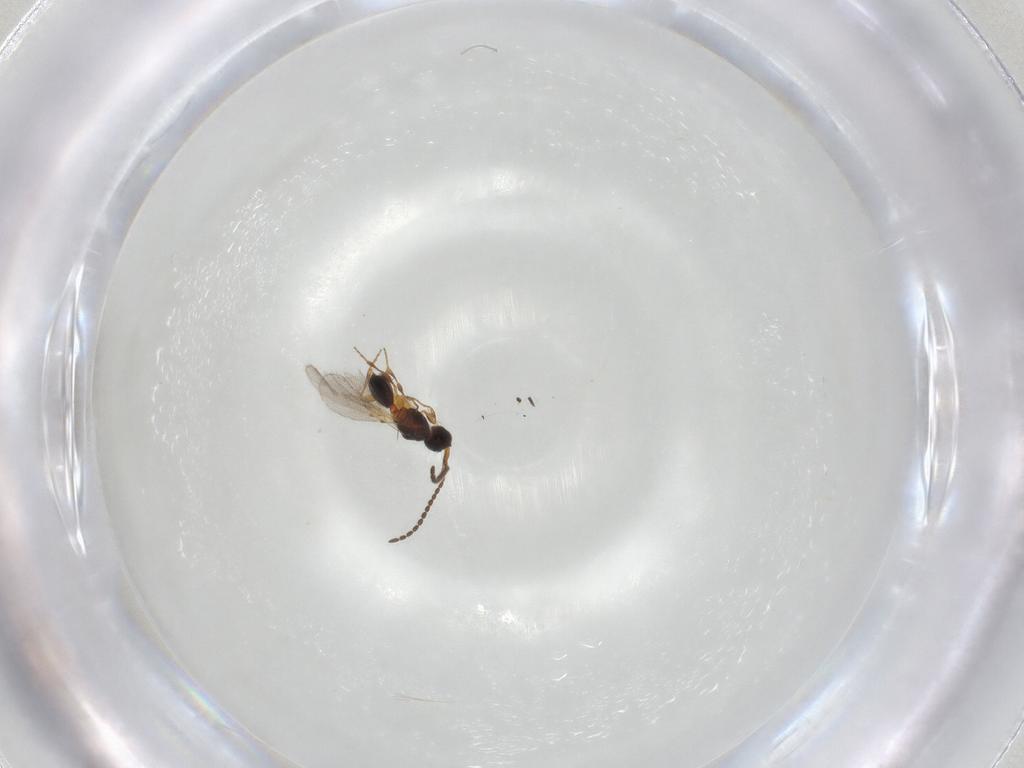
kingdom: Animalia
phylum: Arthropoda
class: Insecta
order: Hymenoptera
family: Diapriidae
